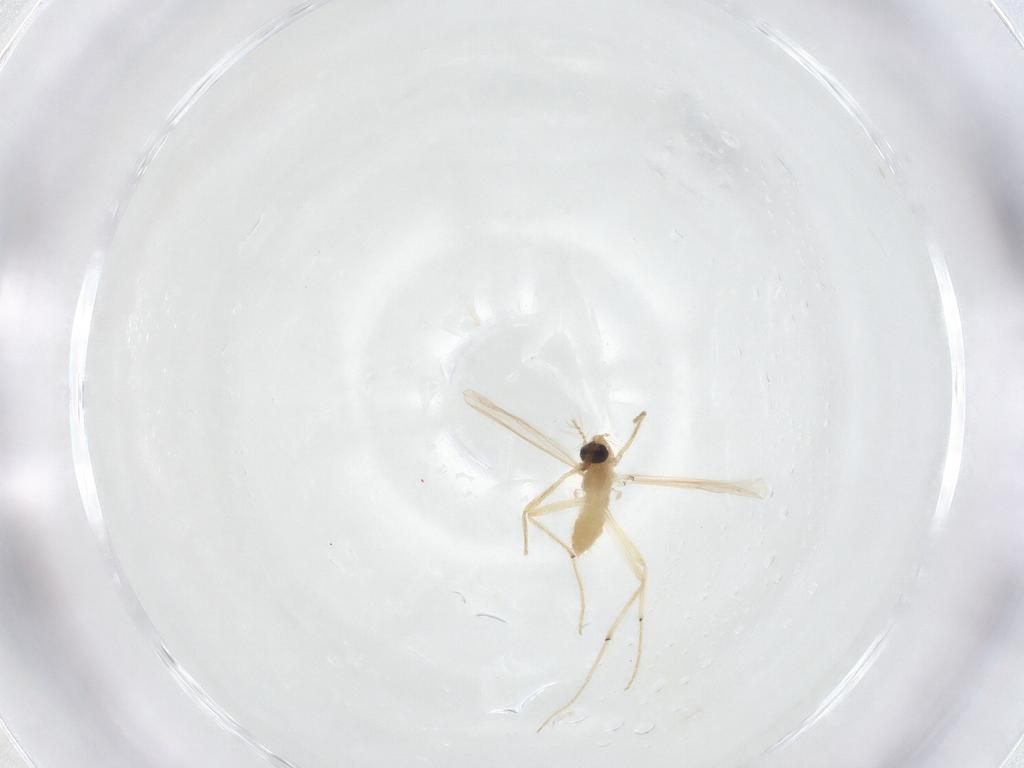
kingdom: Animalia
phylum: Arthropoda
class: Insecta
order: Diptera
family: Chironomidae
